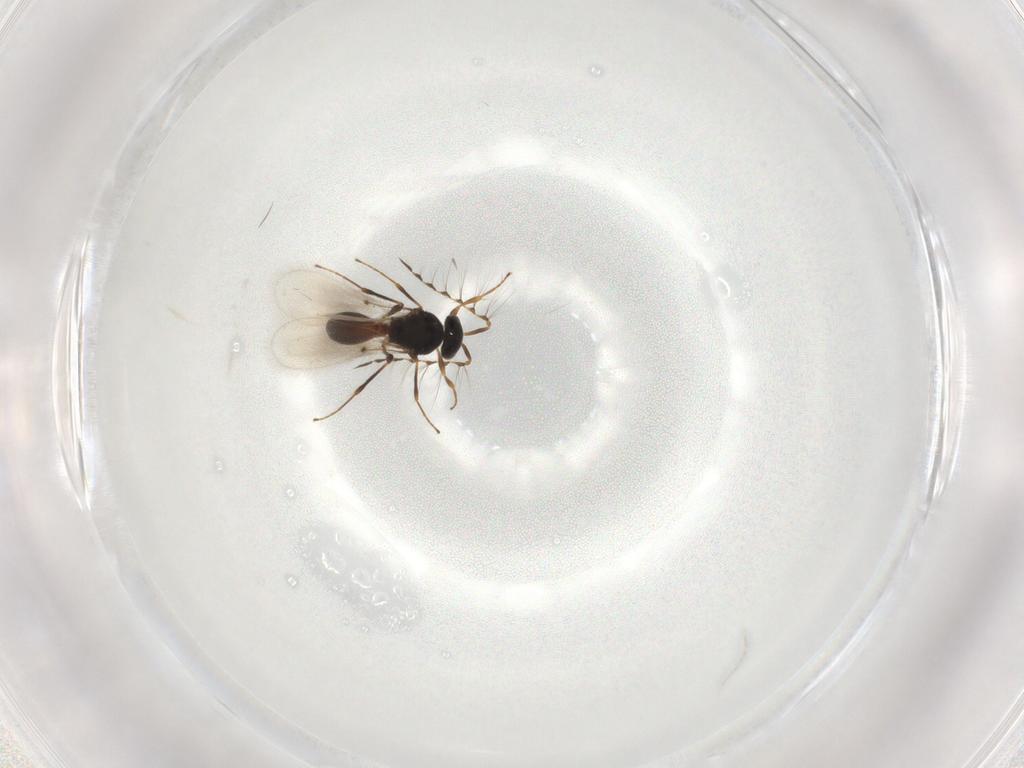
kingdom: Animalia
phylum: Arthropoda
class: Insecta
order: Hymenoptera
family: Platygastridae
